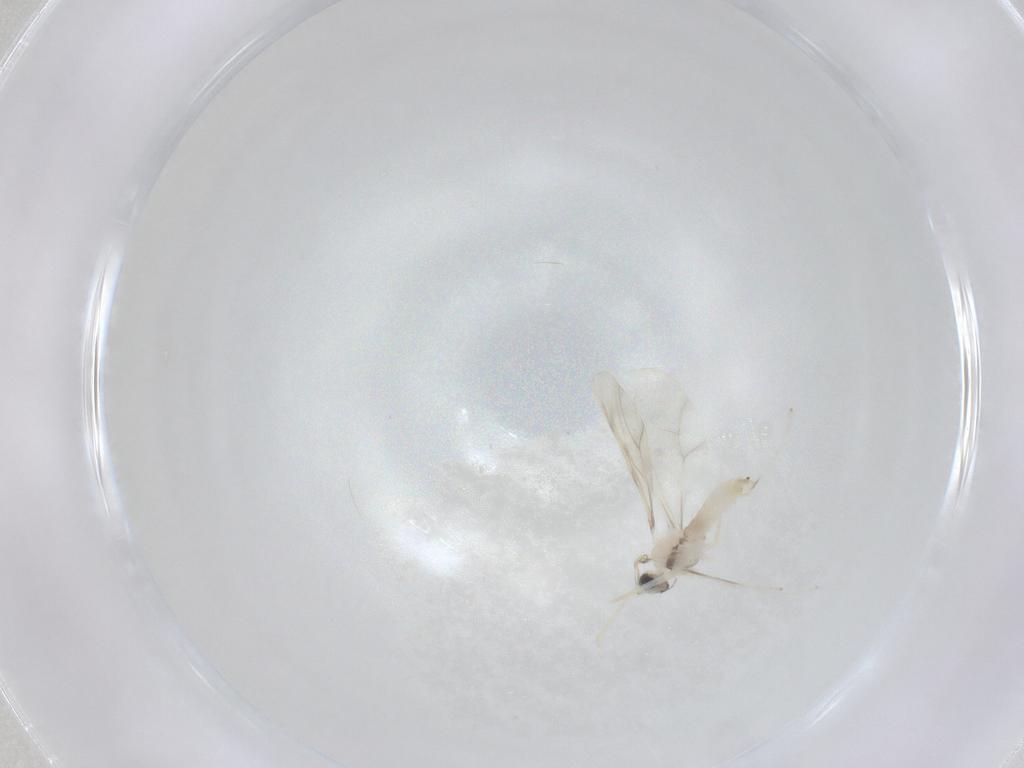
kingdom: Animalia
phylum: Arthropoda
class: Insecta
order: Diptera
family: Cecidomyiidae
